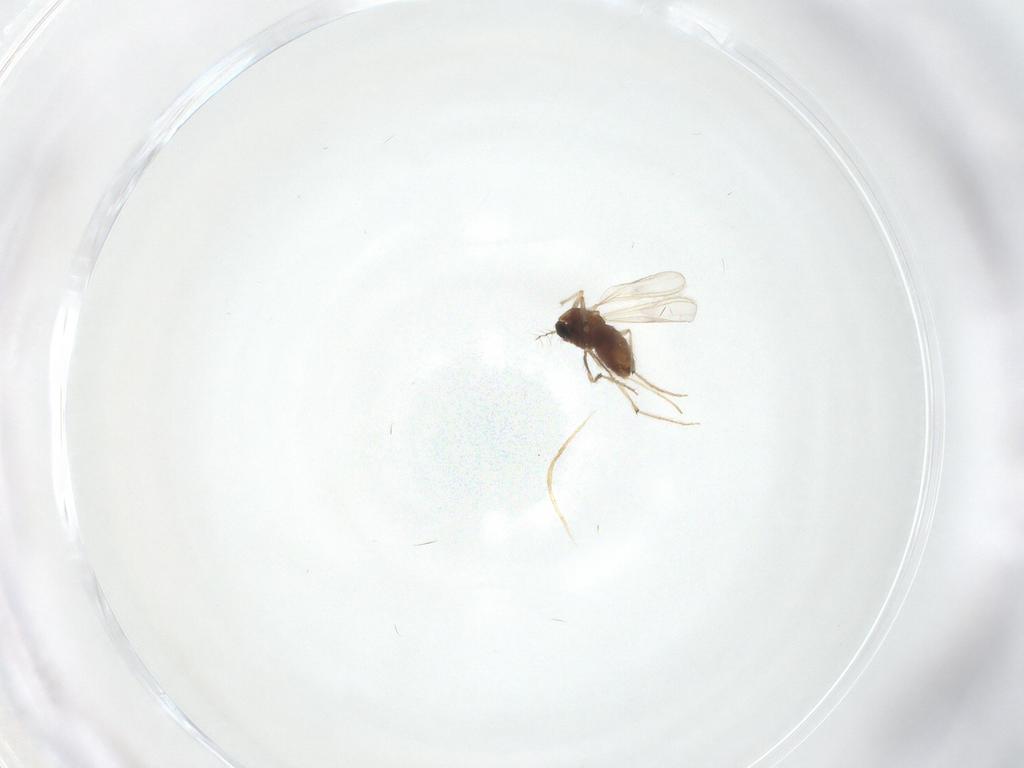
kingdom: Animalia
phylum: Arthropoda
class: Insecta
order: Diptera
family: Chironomidae
